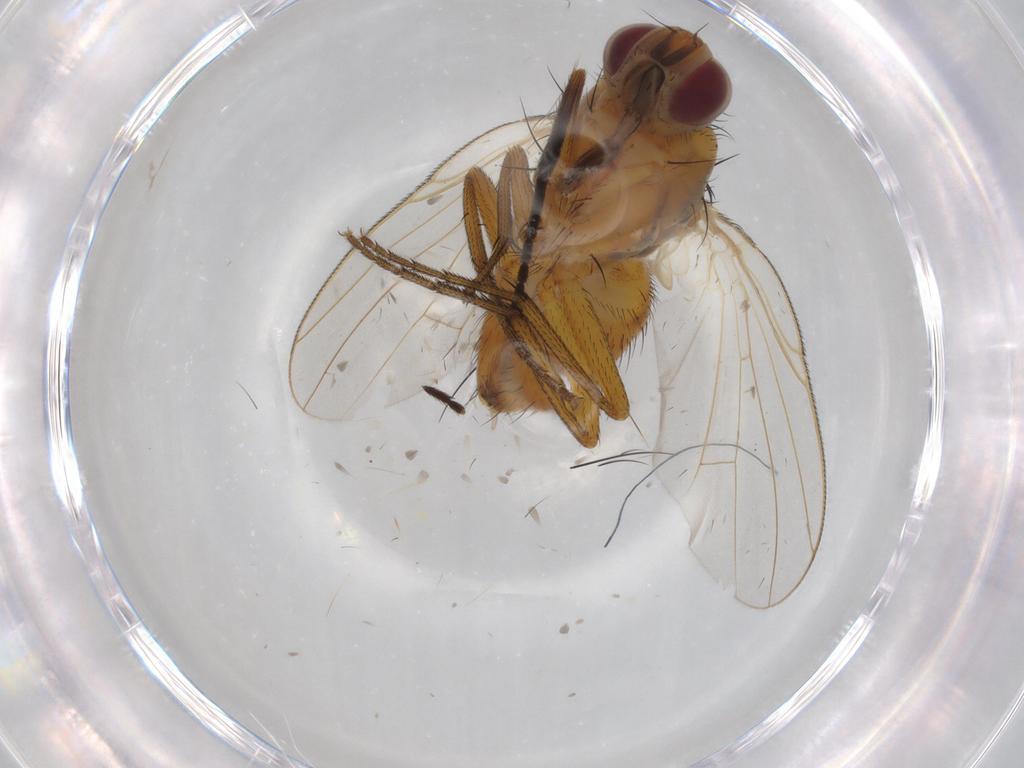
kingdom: Animalia
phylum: Arthropoda
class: Insecta
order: Diptera
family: Muscidae
